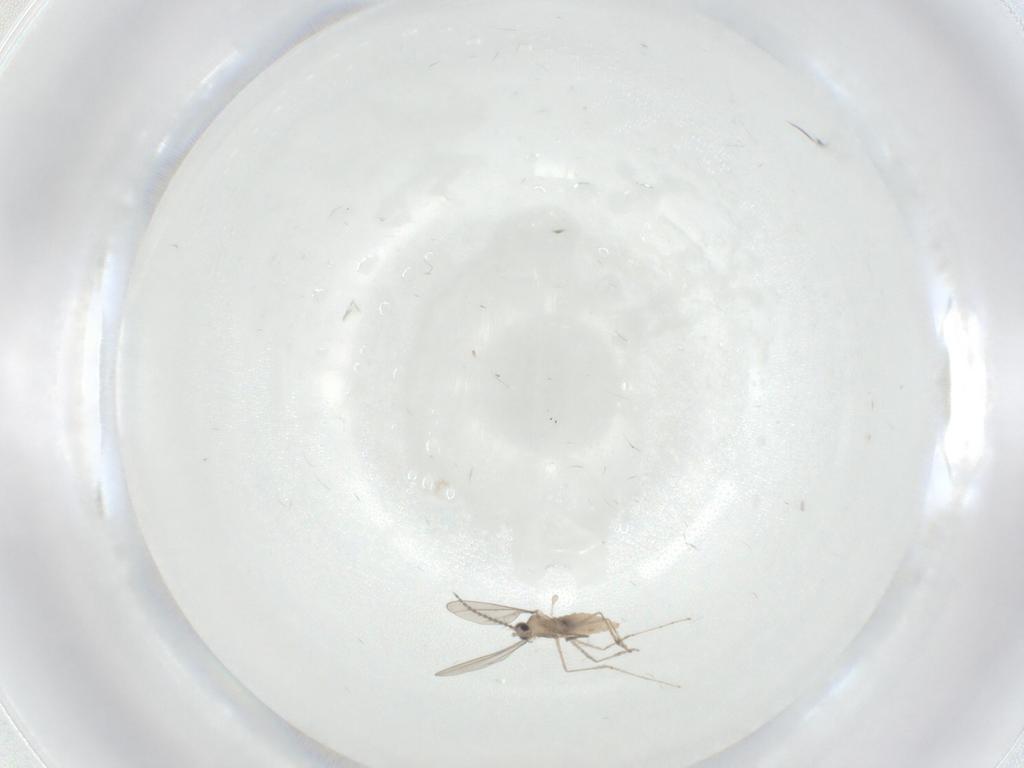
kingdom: Animalia
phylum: Arthropoda
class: Insecta
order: Diptera
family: Cecidomyiidae
